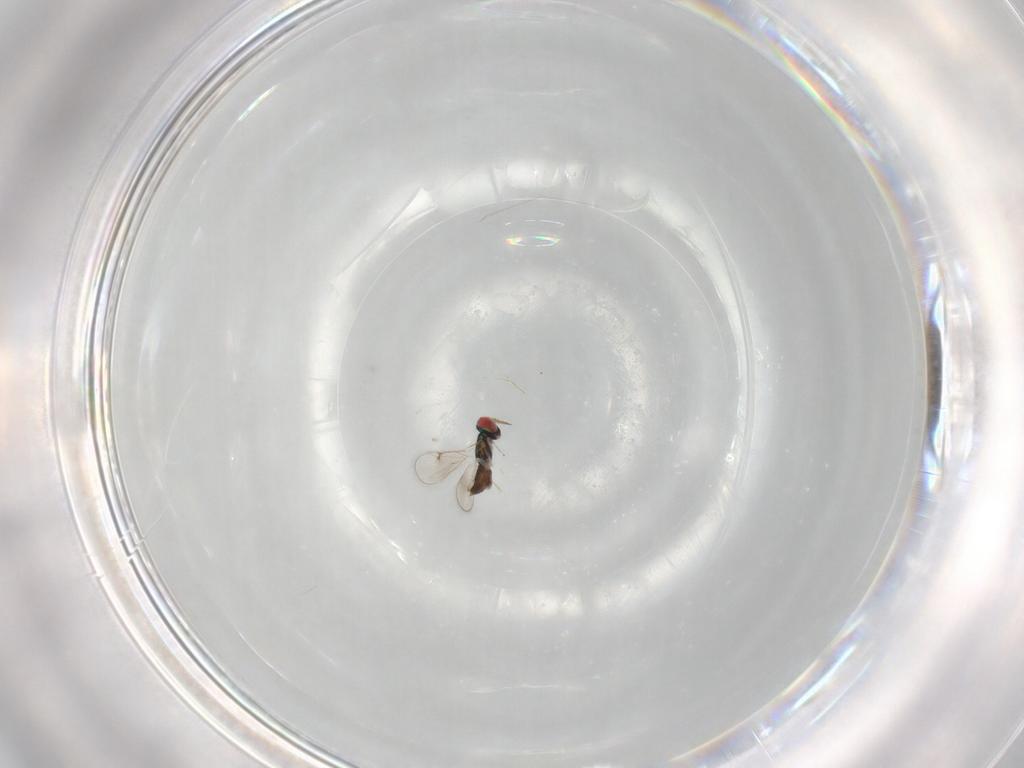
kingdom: Animalia
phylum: Arthropoda
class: Insecta
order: Hymenoptera
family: Eulophidae
